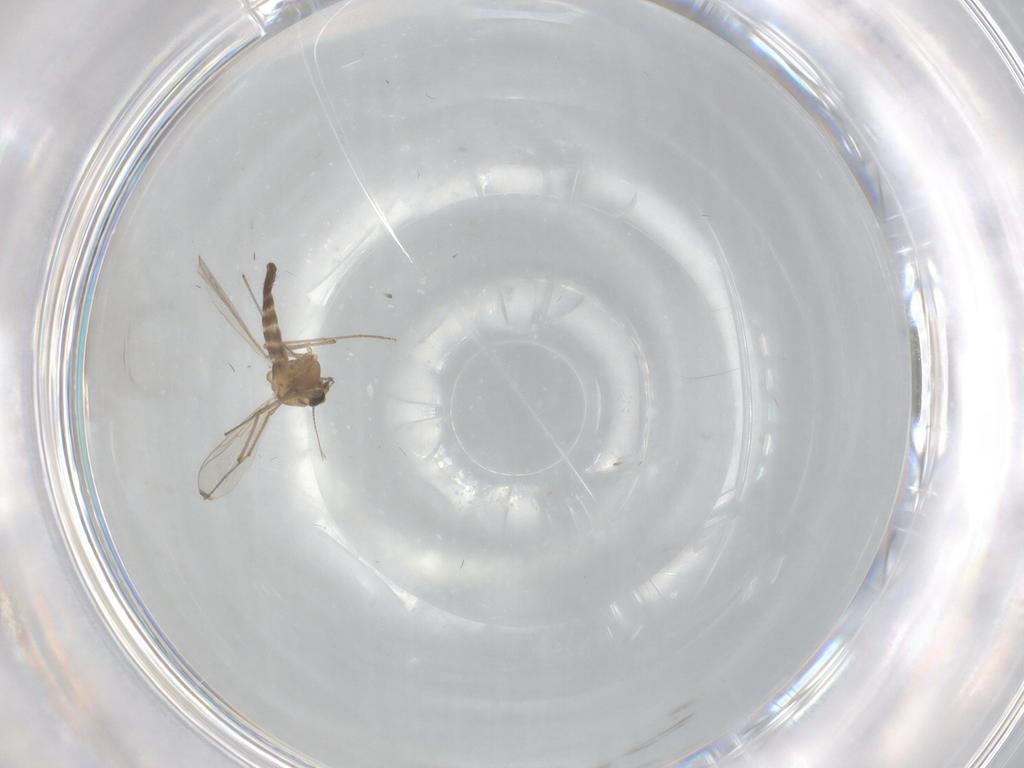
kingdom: Animalia
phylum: Arthropoda
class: Insecta
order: Diptera
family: Chironomidae
